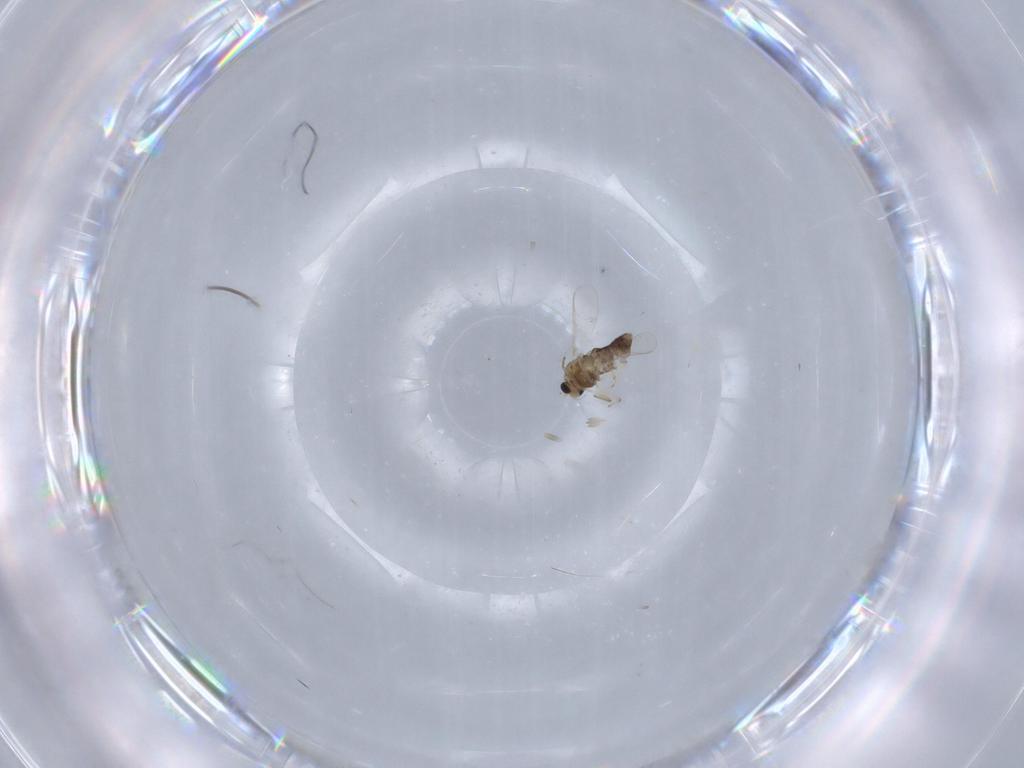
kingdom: Animalia
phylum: Arthropoda
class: Insecta
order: Diptera
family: Chironomidae
